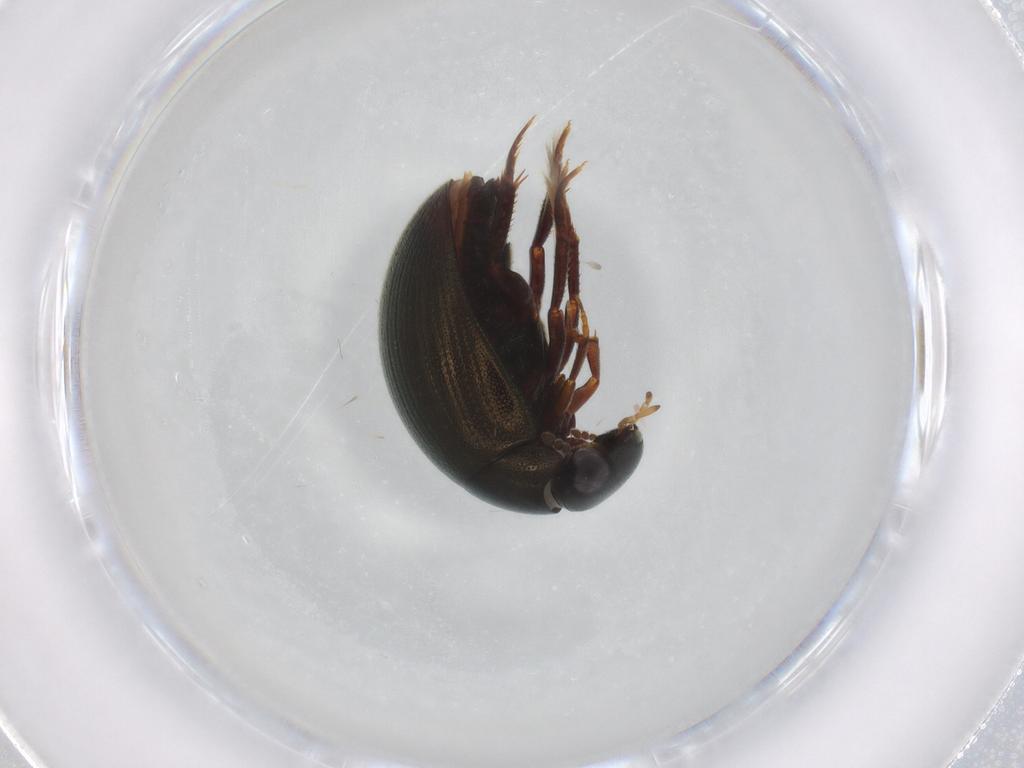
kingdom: Animalia
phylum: Arthropoda
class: Insecta
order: Coleoptera
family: Carabidae
